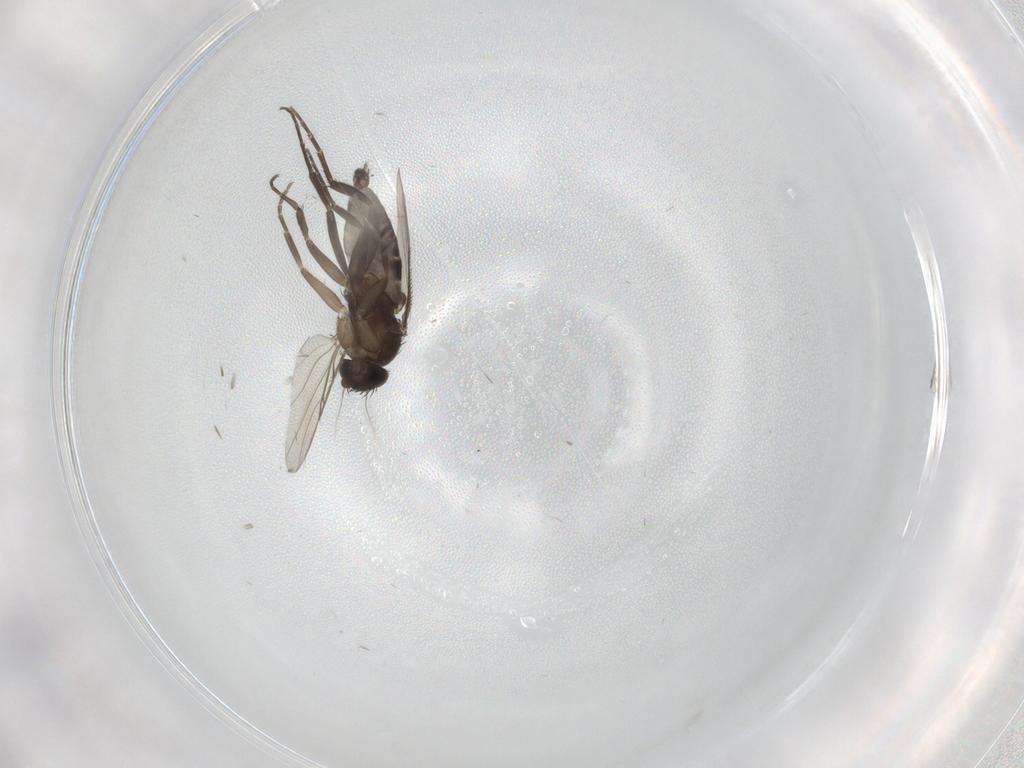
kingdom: Animalia
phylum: Arthropoda
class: Insecta
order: Diptera
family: Phoridae
